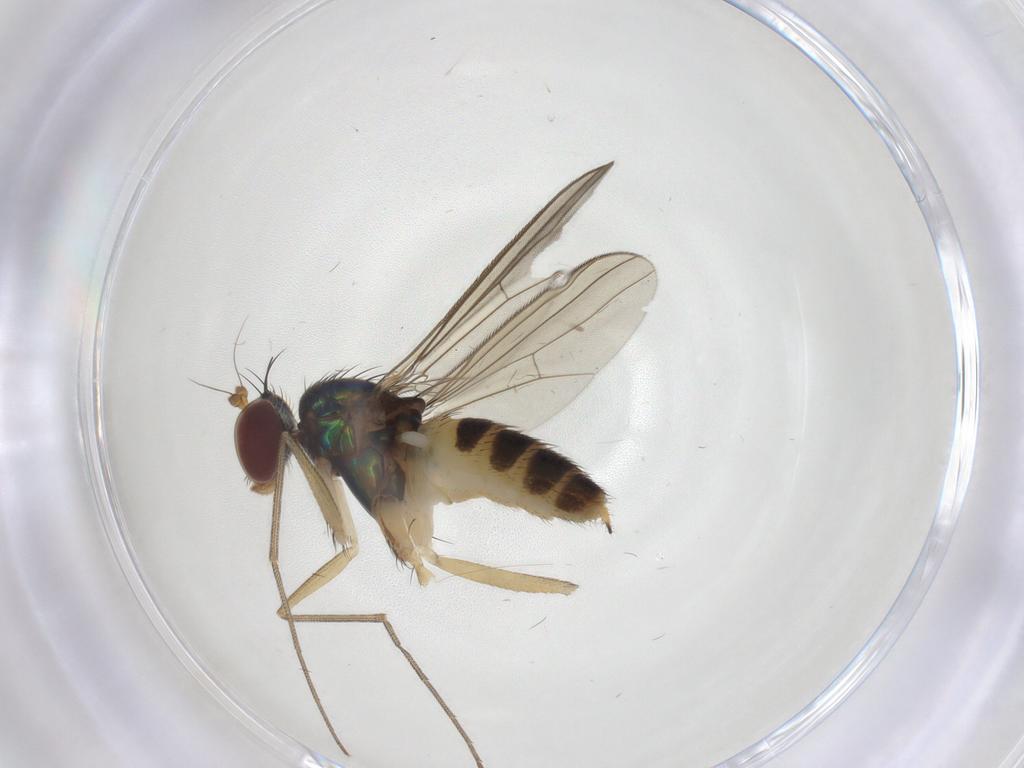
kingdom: Animalia
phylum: Arthropoda
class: Insecta
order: Diptera
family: Dolichopodidae
